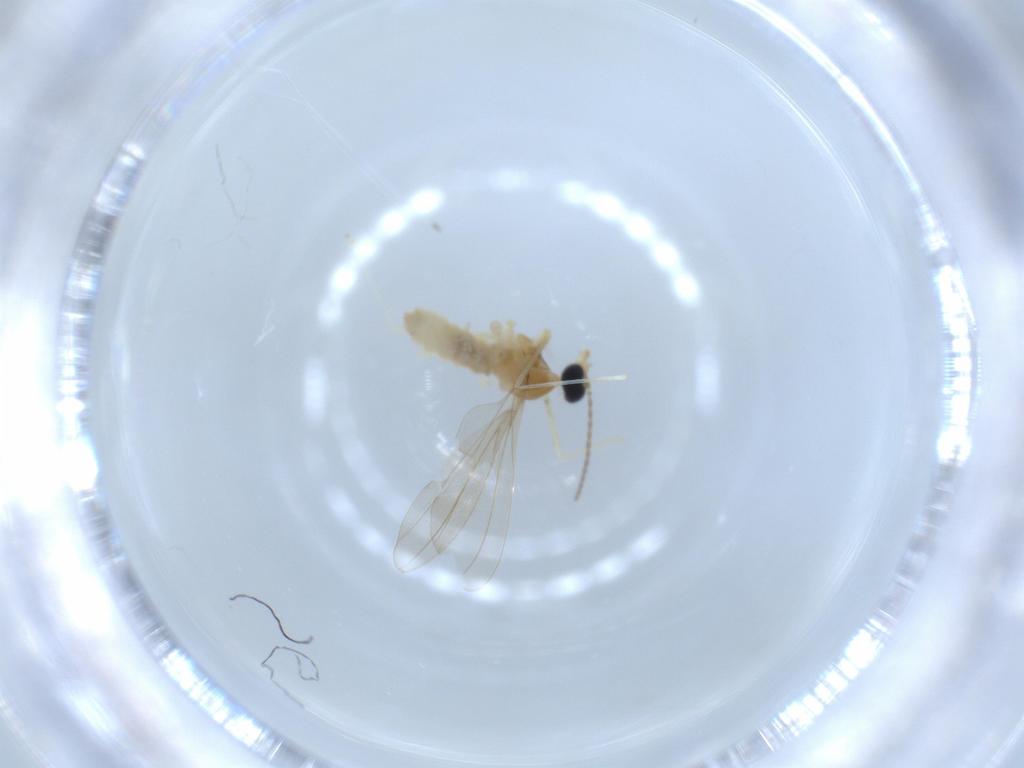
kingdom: Animalia
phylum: Arthropoda
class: Insecta
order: Diptera
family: Cecidomyiidae
